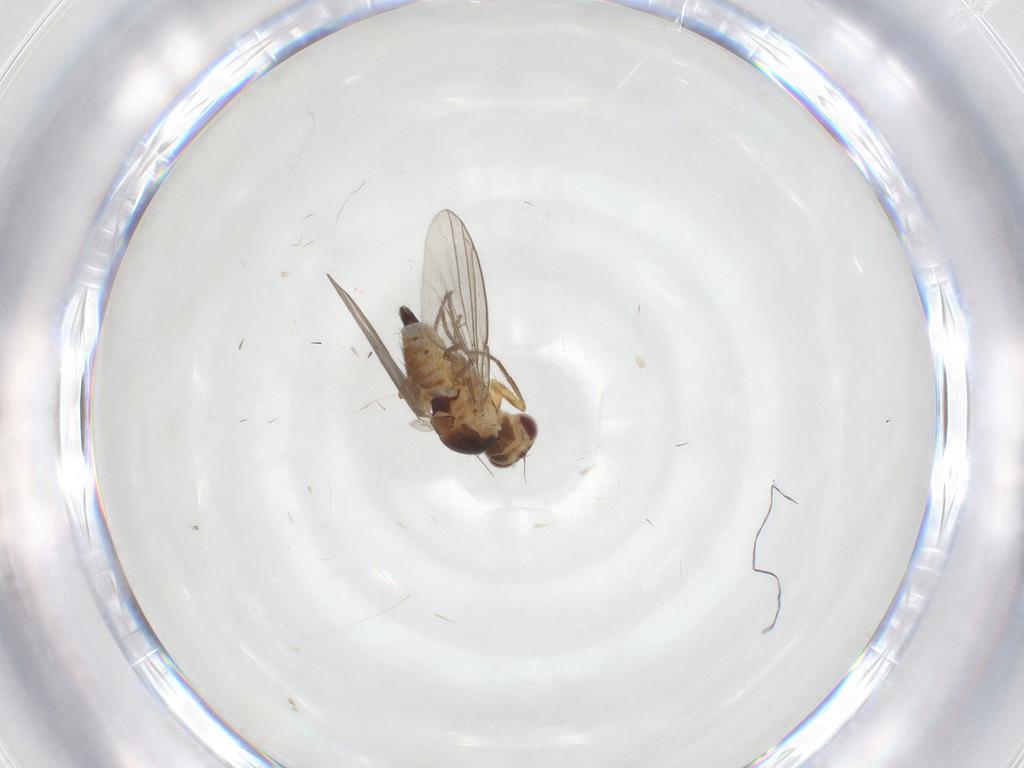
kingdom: Animalia
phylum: Arthropoda
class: Insecta
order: Diptera
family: Agromyzidae
